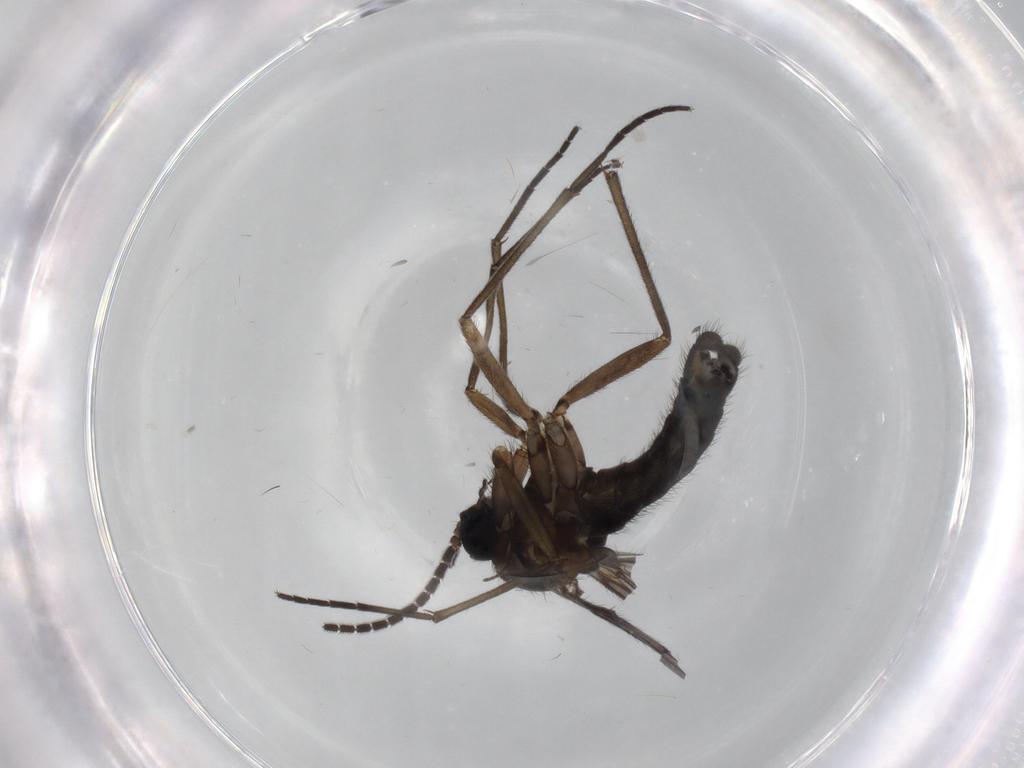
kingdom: Animalia
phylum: Arthropoda
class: Insecta
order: Diptera
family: Sciaridae
